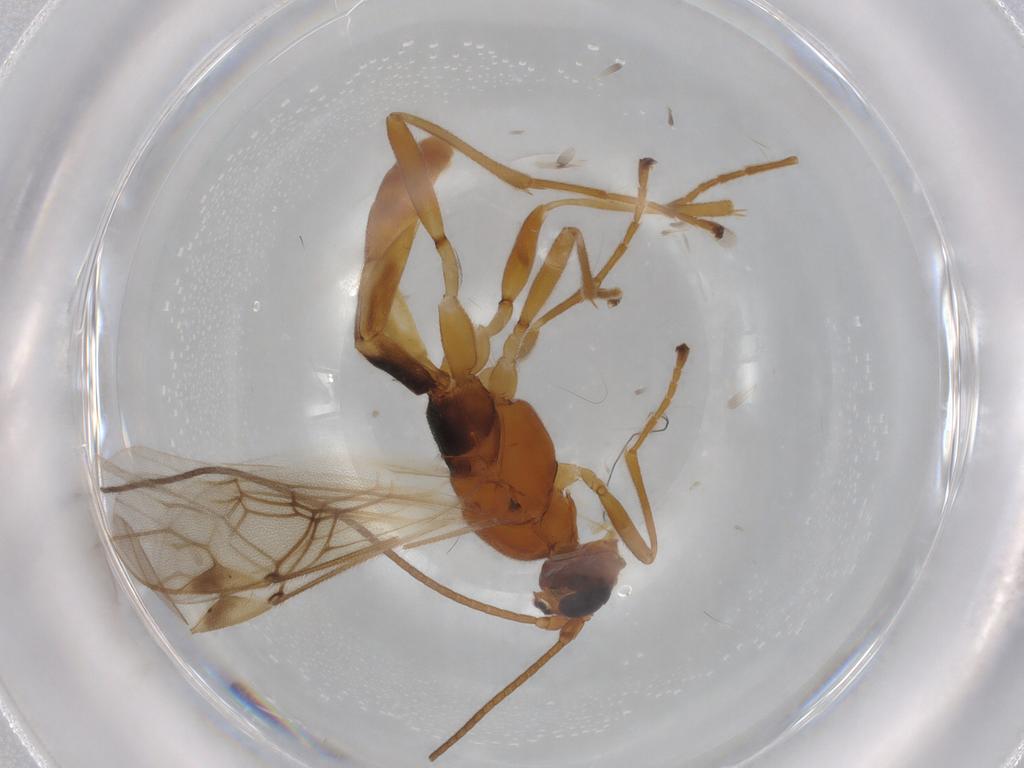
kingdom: Animalia
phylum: Arthropoda
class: Insecta
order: Hymenoptera
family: Braconidae
